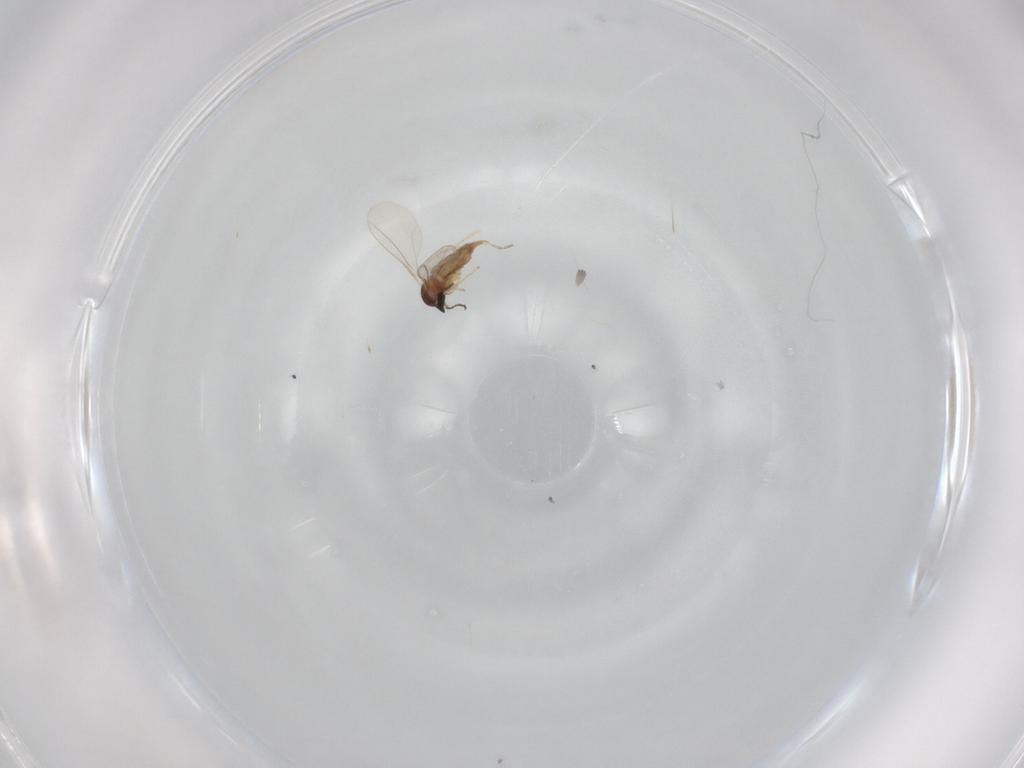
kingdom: Animalia
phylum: Arthropoda
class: Insecta
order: Diptera
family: Cecidomyiidae
